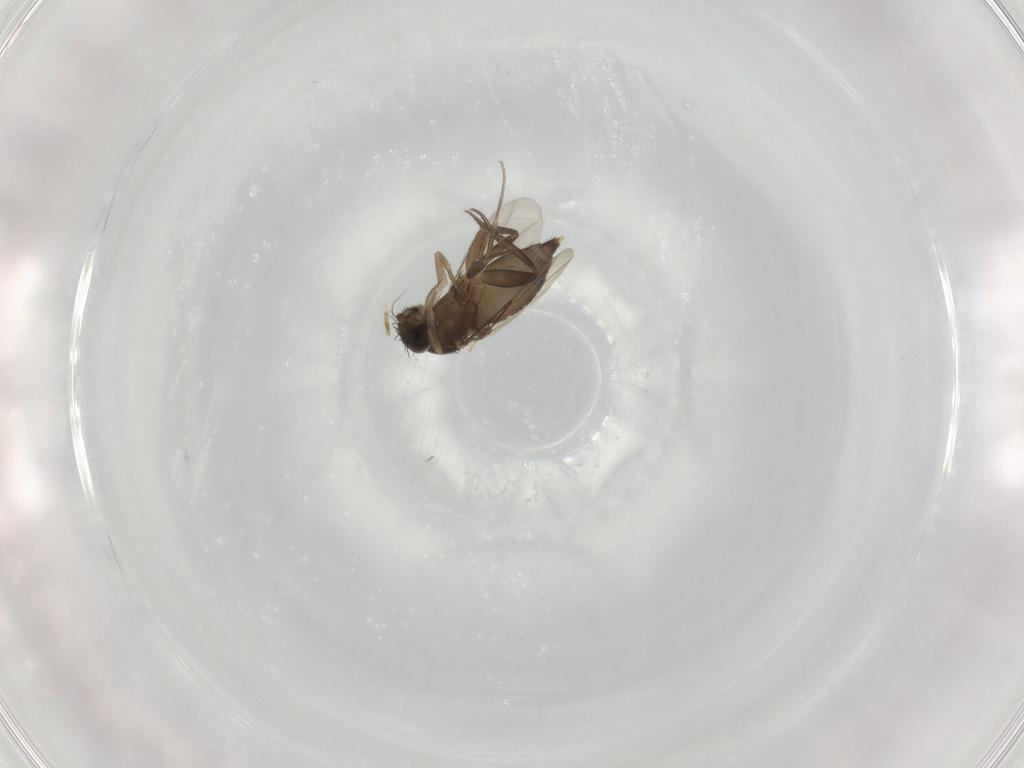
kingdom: Animalia
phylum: Arthropoda
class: Insecta
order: Diptera
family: Phoridae
